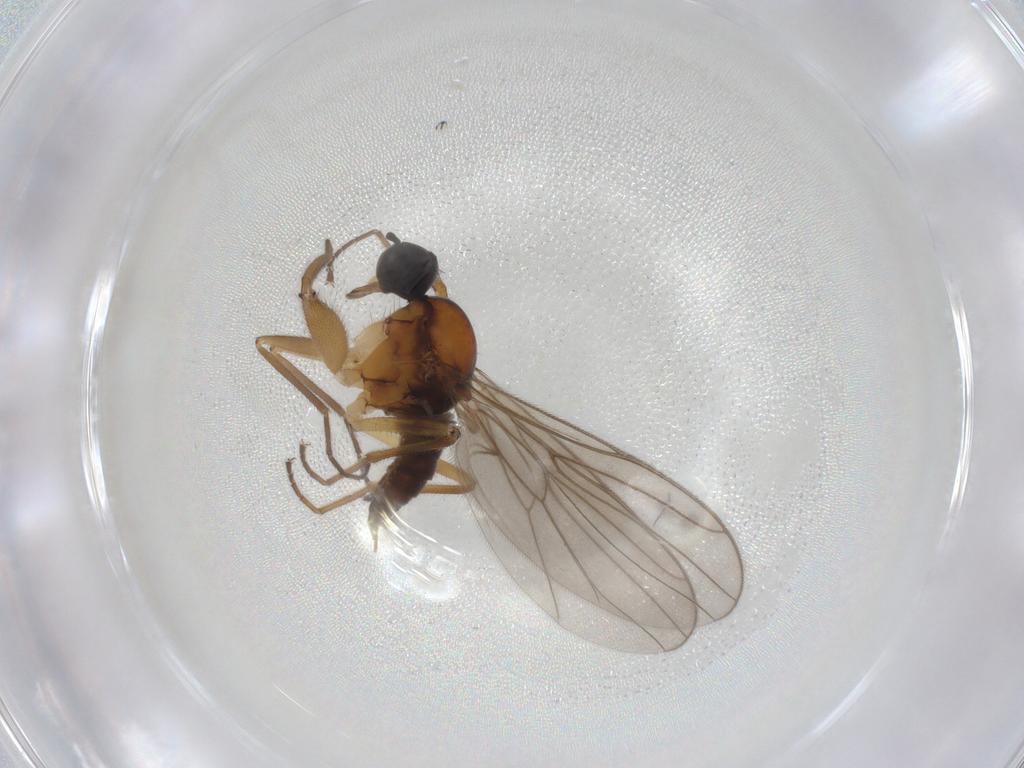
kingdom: Animalia
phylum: Arthropoda
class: Insecta
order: Diptera
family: Hybotidae
